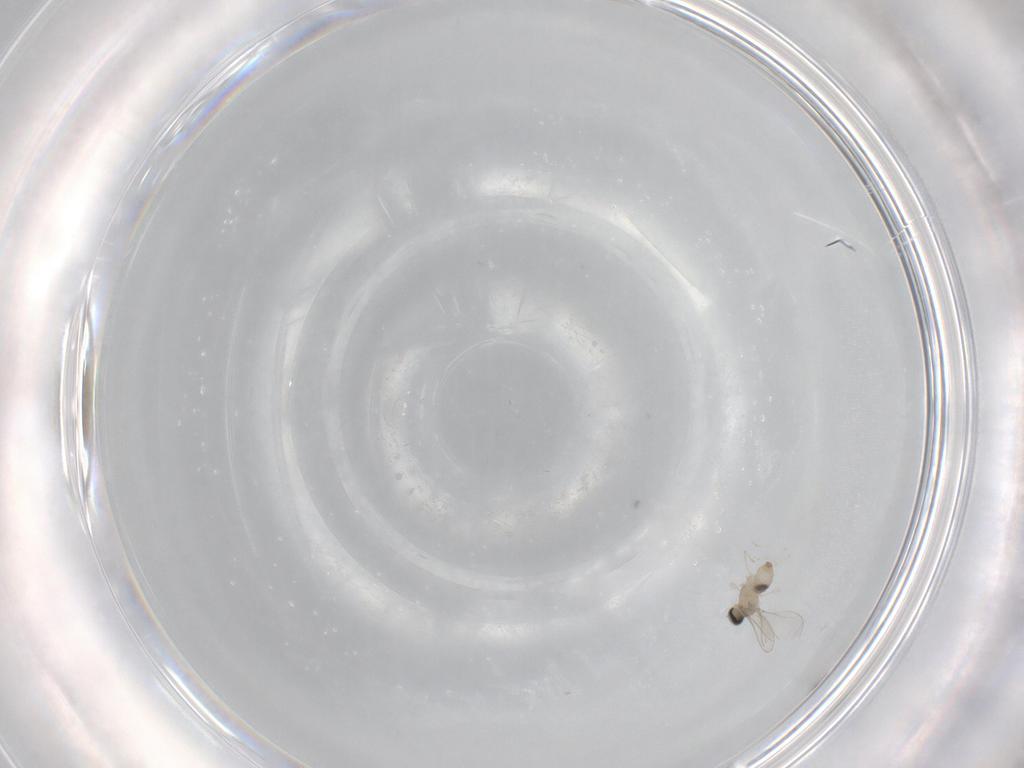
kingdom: Animalia
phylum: Arthropoda
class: Insecta
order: Diptera
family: Cecidomyiidae
